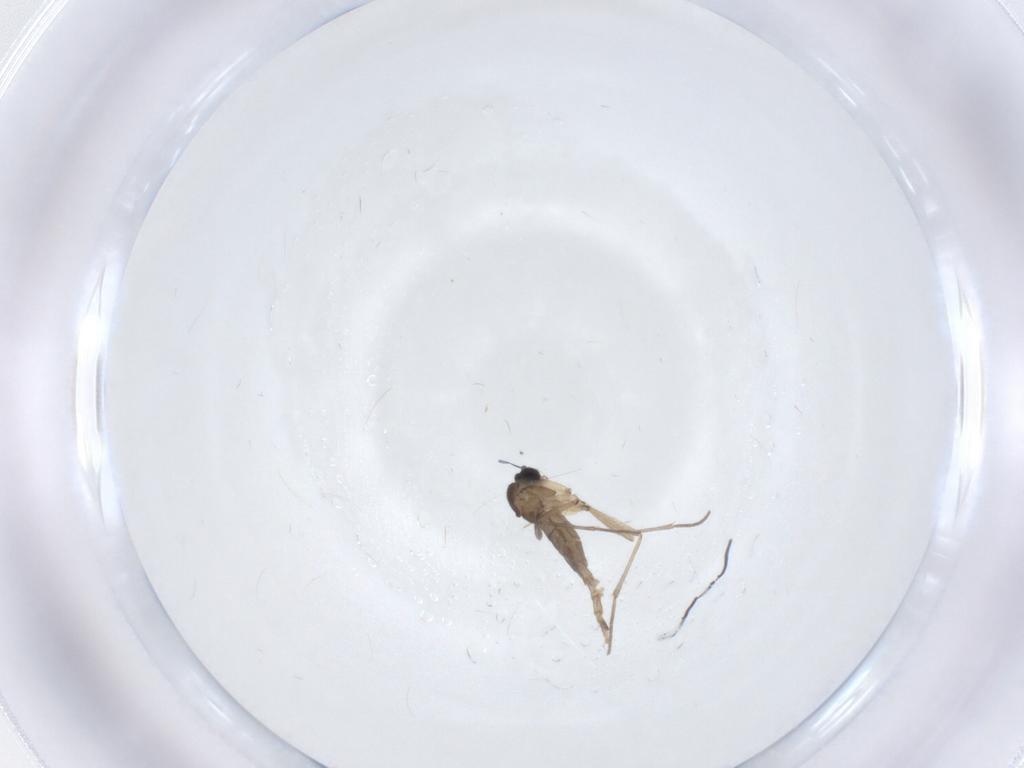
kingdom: Animalia
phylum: Arthropoda
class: Insecta
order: Diptera
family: Sciaridae
